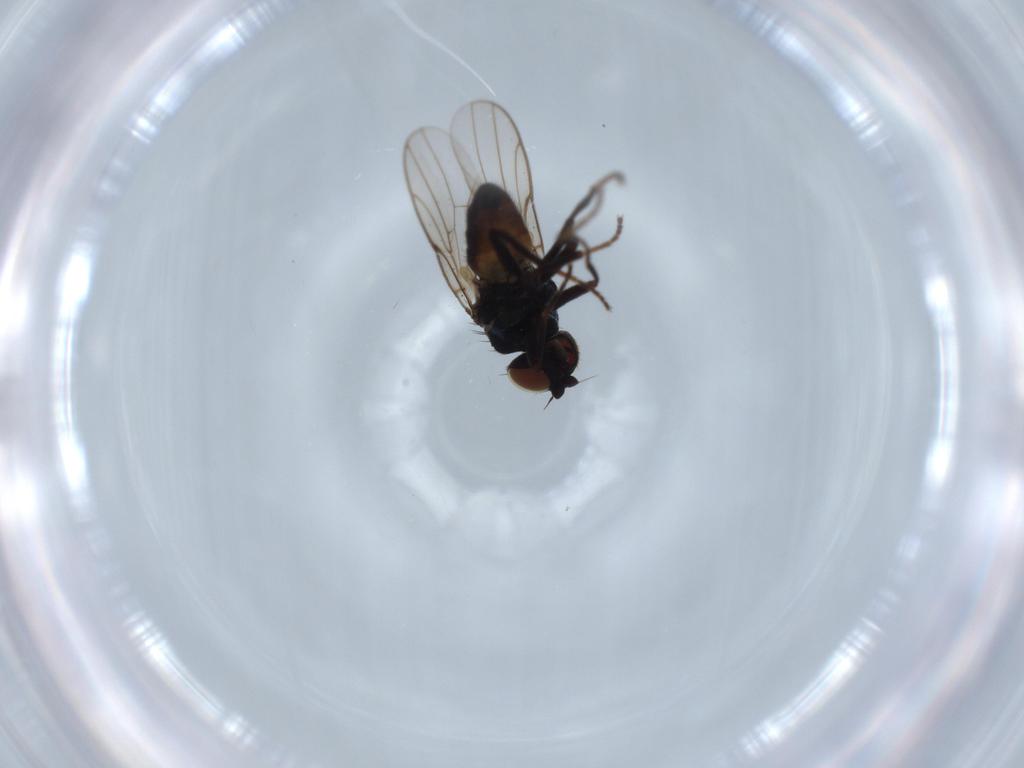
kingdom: Animalia
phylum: Arthropoda
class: Insecta
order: Diptera
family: Chloropidae
